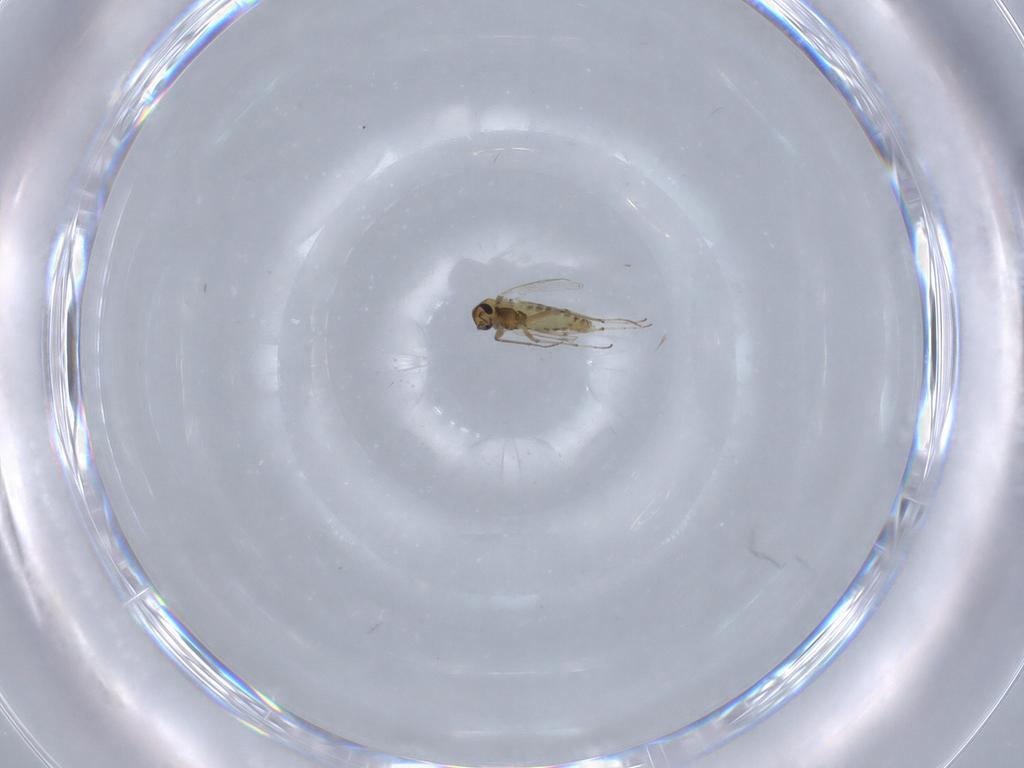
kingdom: Animalia
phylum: Arthropoda
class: Insecta
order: Diptera
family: Chironomidae
